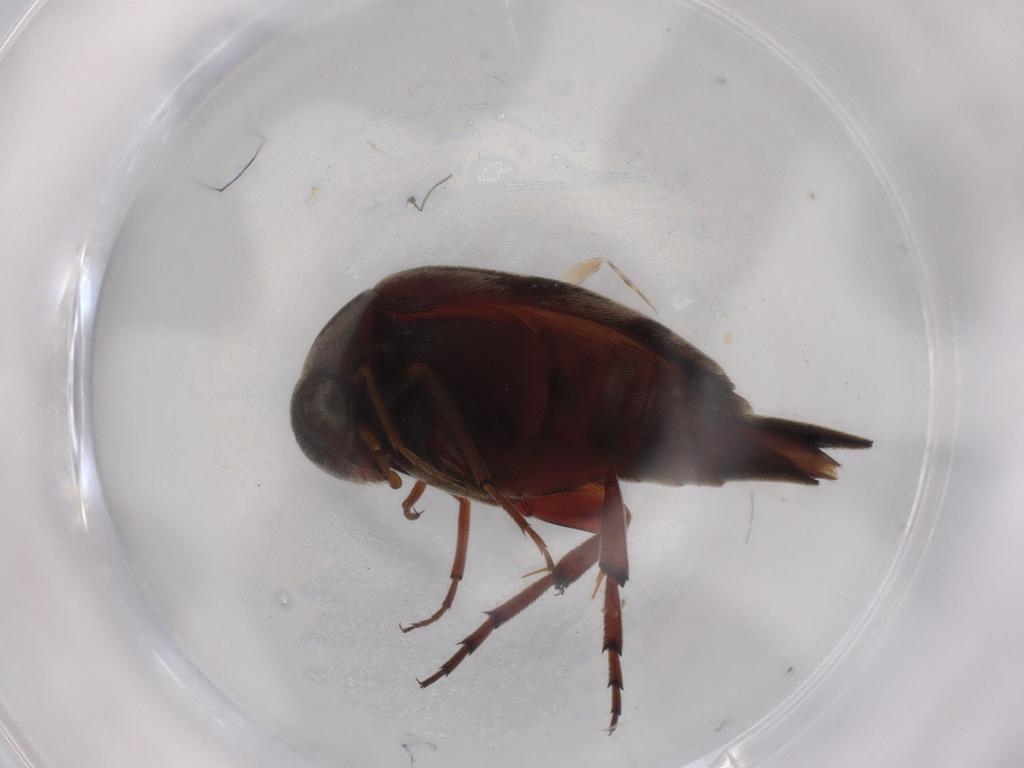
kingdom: Animalia
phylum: Arthropoda
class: Insecta
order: Coleoptera
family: Mordellidae
